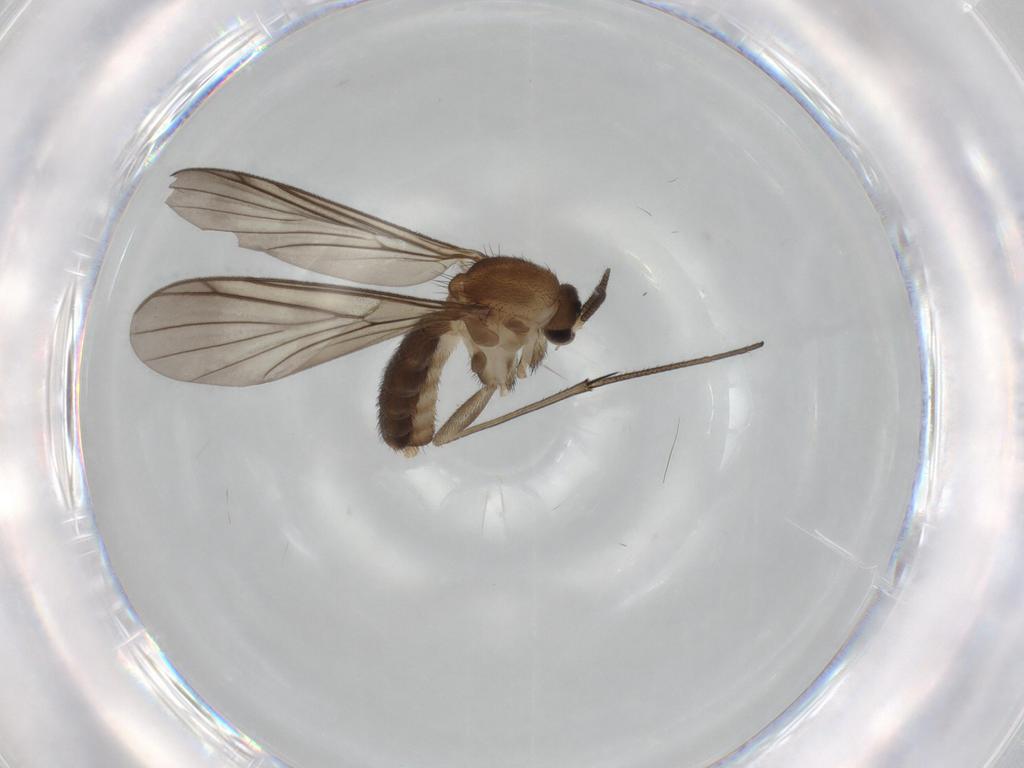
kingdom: Animalia
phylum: Arthropoda
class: Insecta
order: Diptera
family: Mycetophilidae
